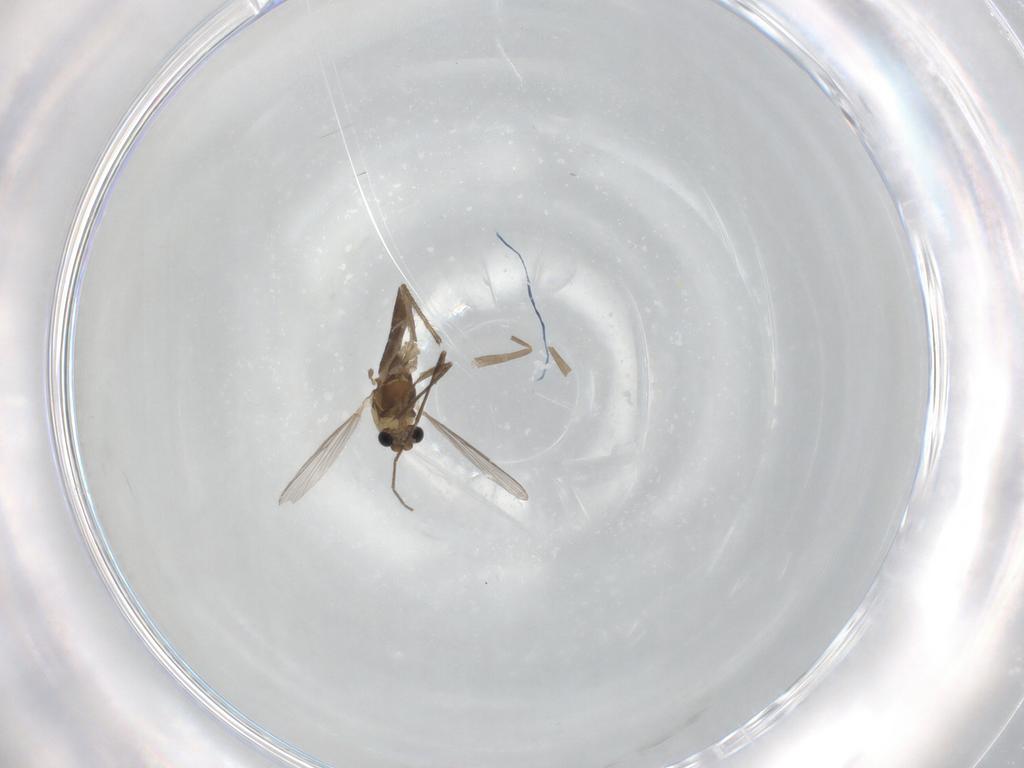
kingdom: Animalia
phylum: Arthropoda
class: Insecta
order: Diptera
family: Chironomidae
